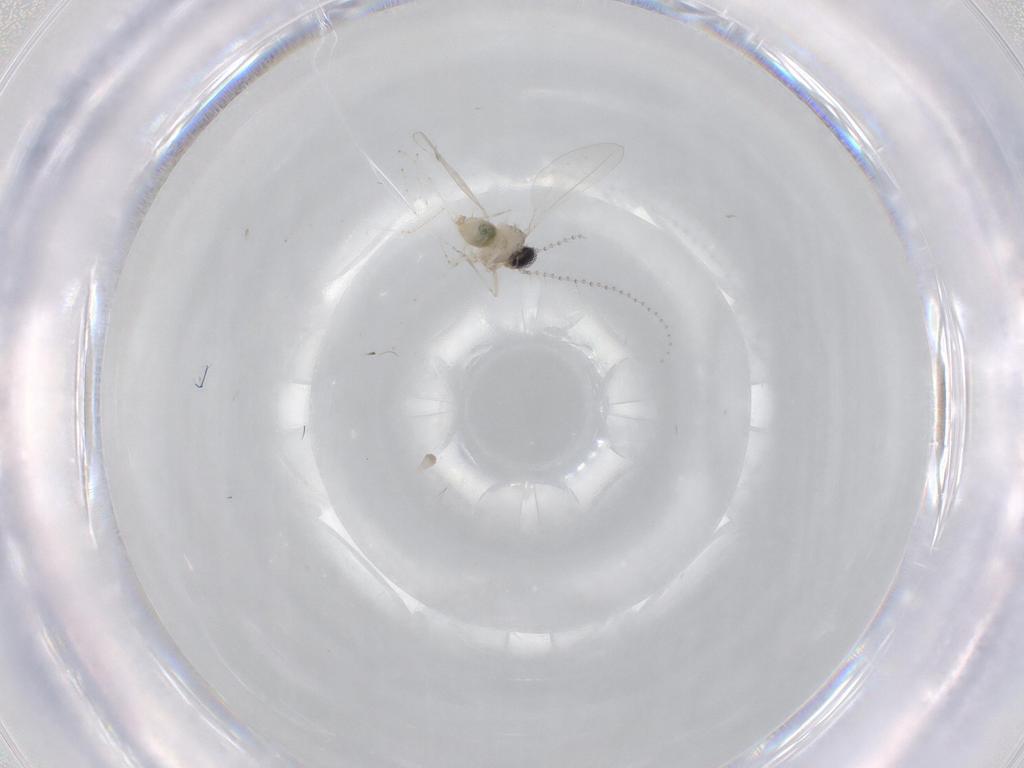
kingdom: Animalia
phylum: Arthropoda
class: Insecta
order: Diptera
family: Cecidomyiidae
